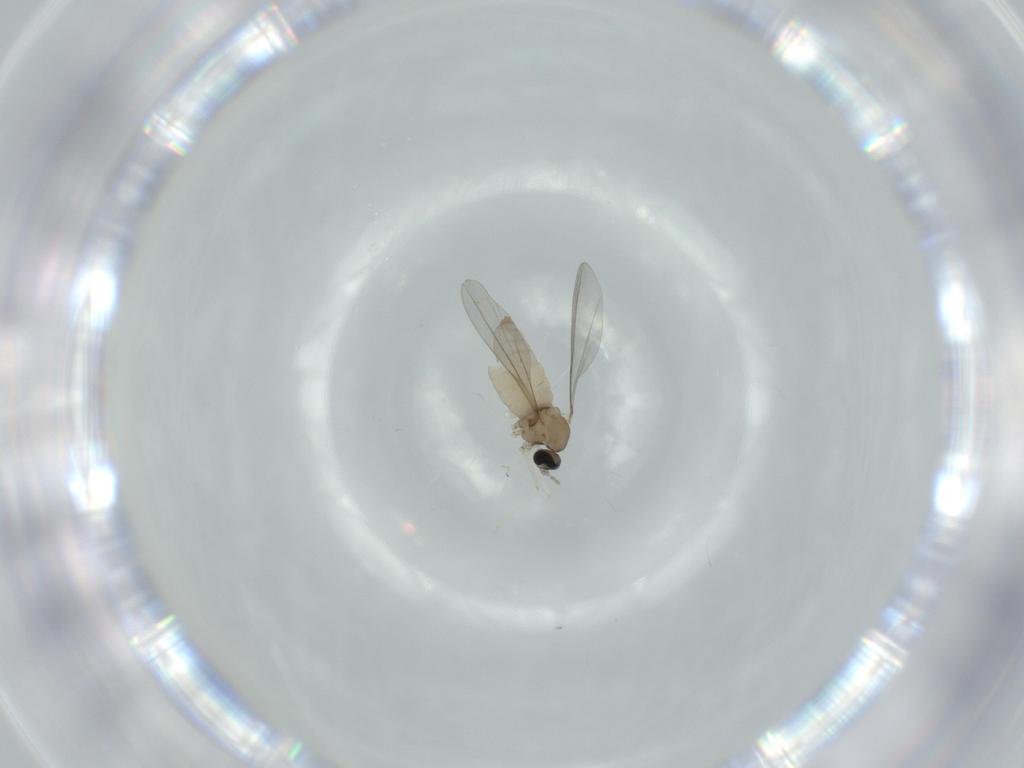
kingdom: Animalia
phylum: Arthropoda
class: Insecta
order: Diptera
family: Cecidomyiidae
